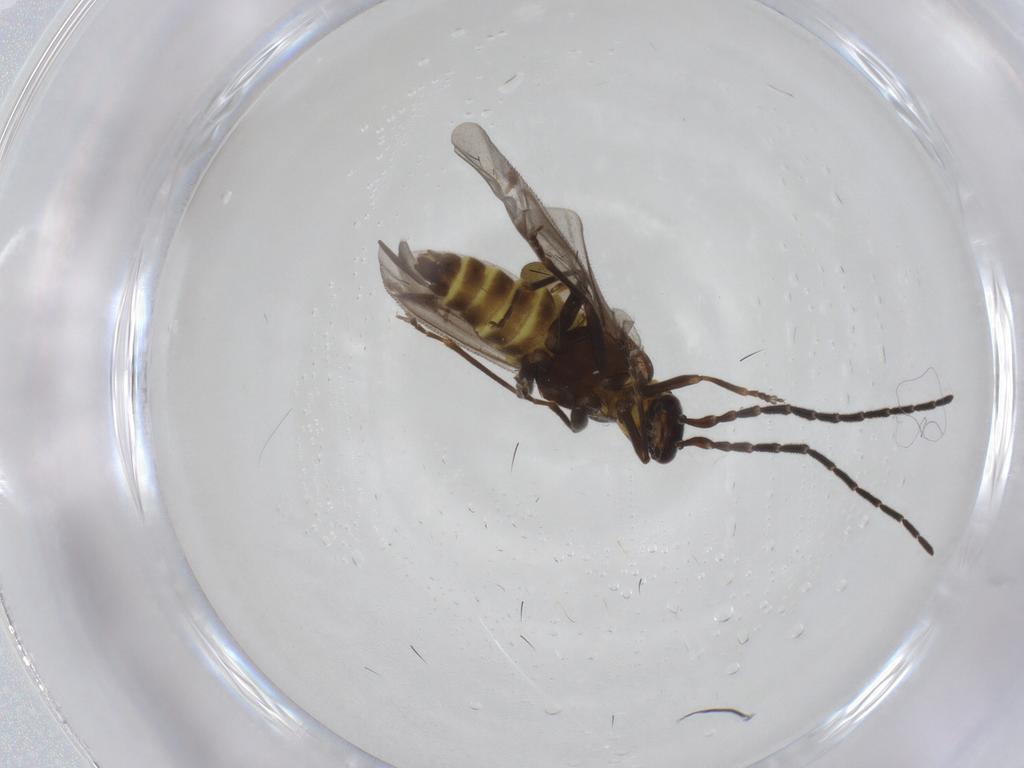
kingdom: Animalia
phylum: Arthropoda
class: Insecta
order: Coleoptera
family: Cantharidae
